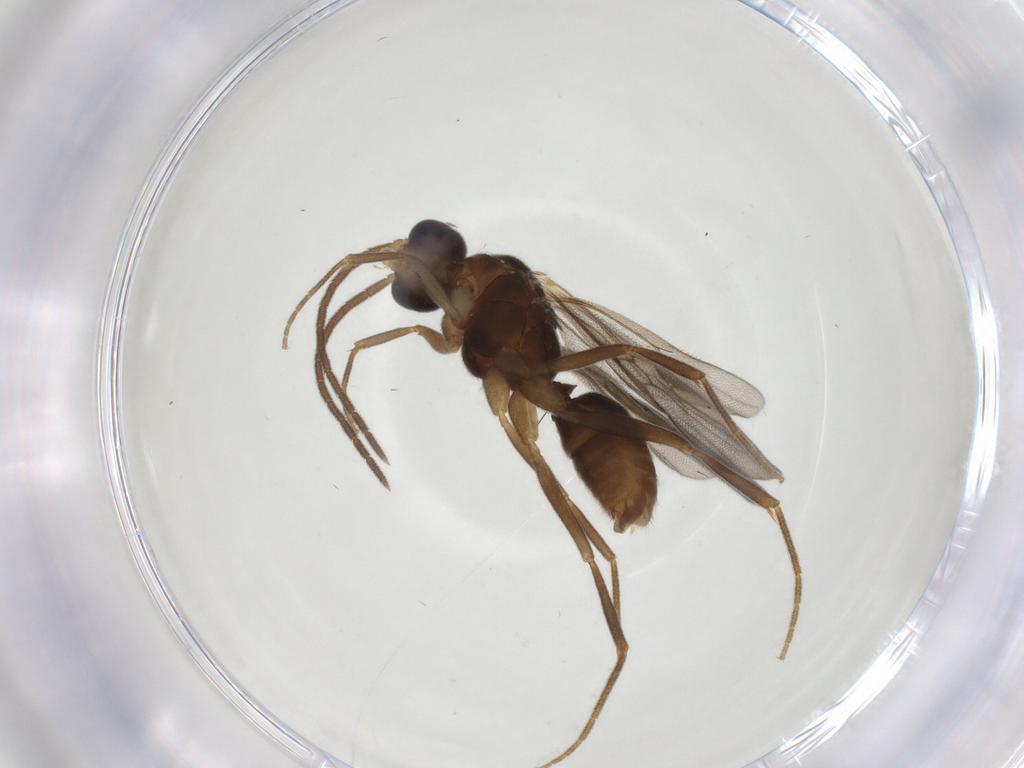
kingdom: Animalia
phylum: Arthropoda
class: Insecta
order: Hymenoptera
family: Formicidae
